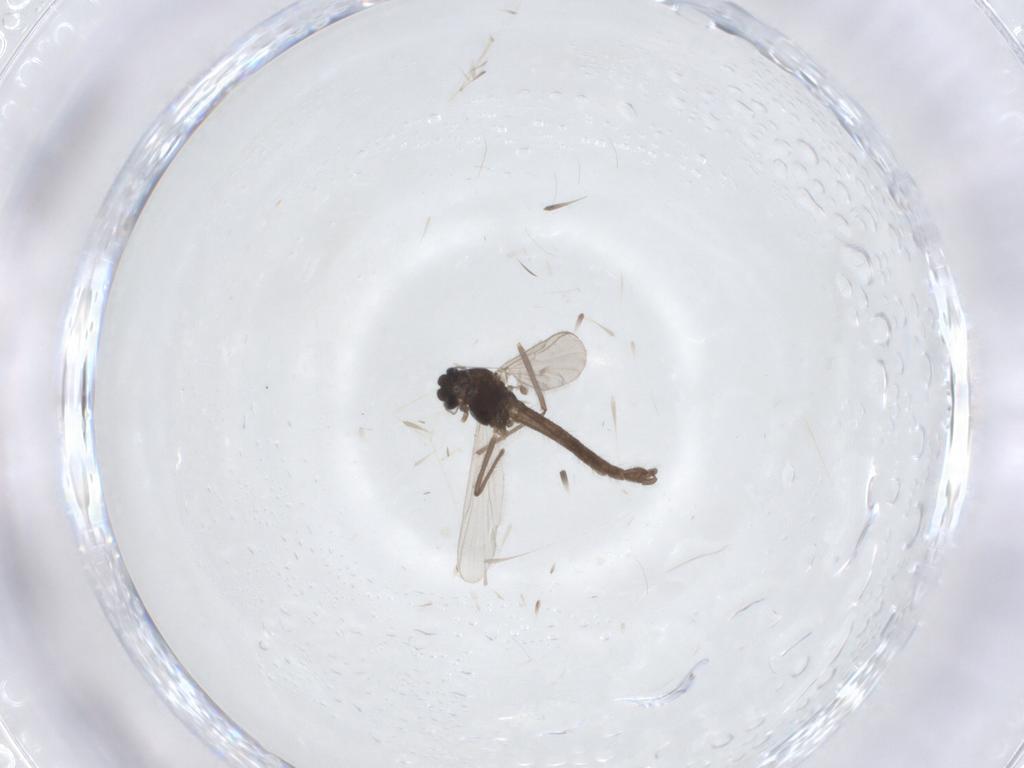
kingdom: Animalia
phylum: Arthropoda
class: Insecta
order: Diptera
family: Chironomidae
